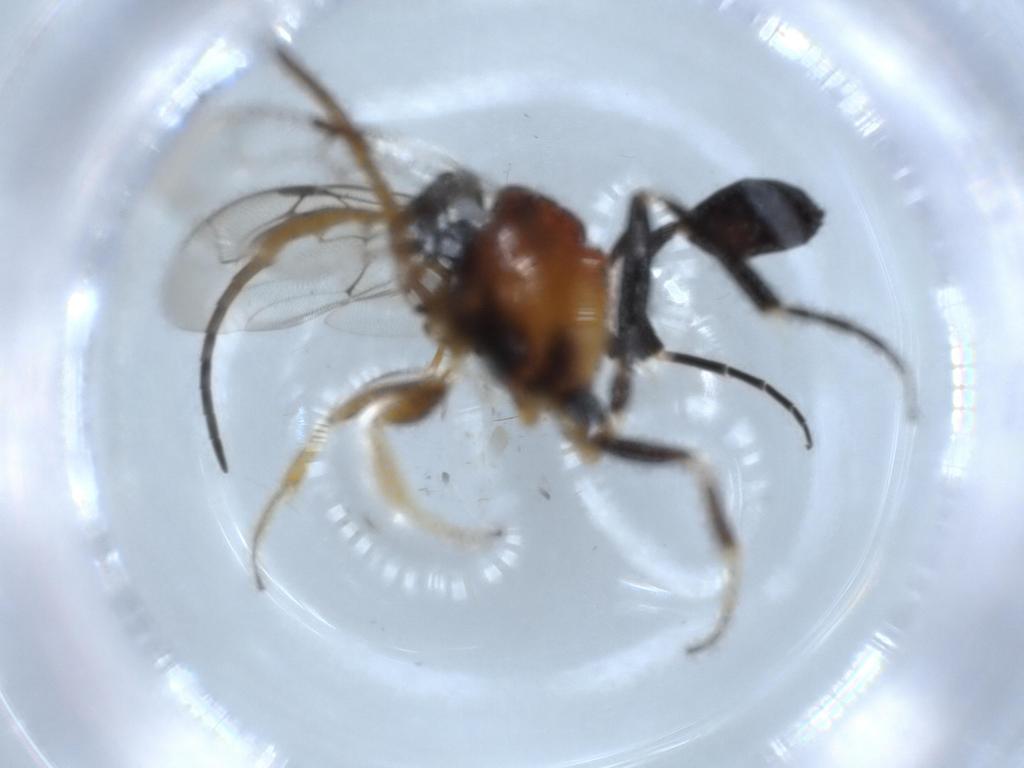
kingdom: Animalia
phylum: Arthropoda
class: Insecta
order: Hymenoptera
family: Evaniidae
